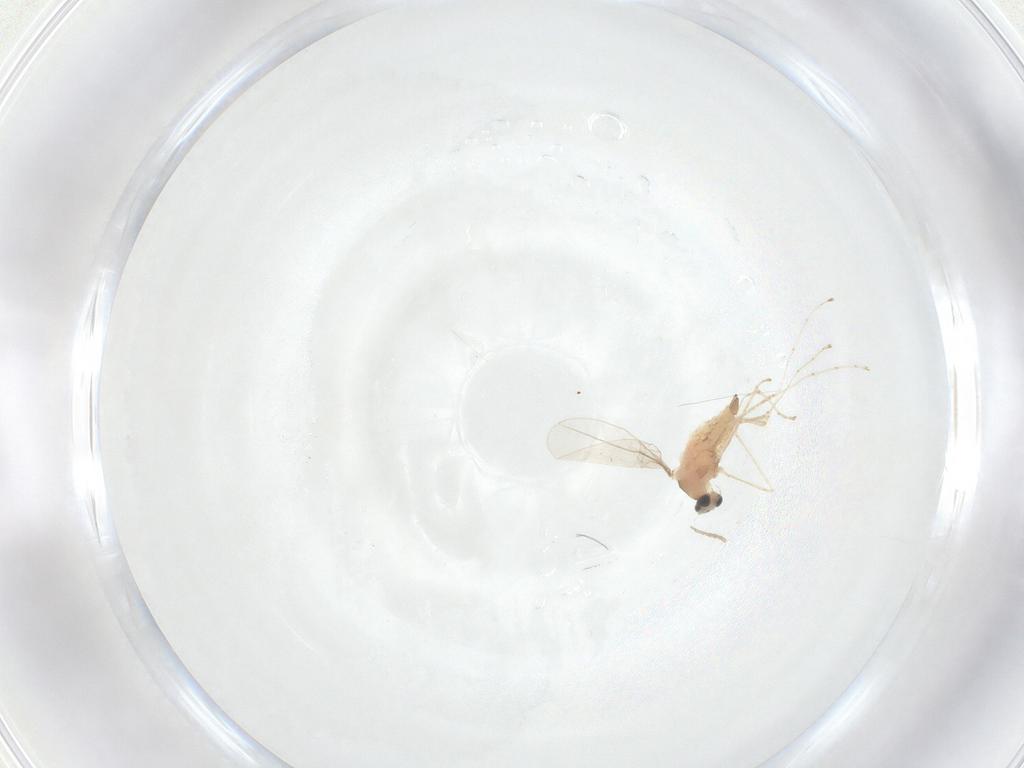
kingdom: Animalia
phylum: Arthropoda
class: Insecta
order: Diptera
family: Cecidomyiidae
